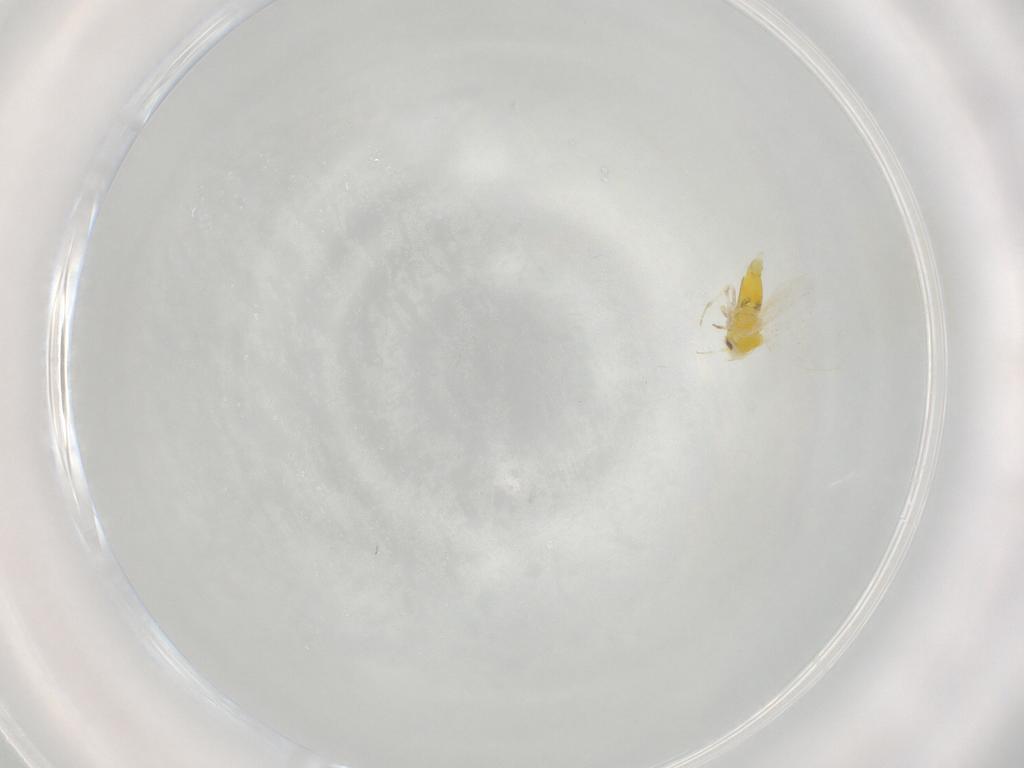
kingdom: Animalia
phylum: Arthropoda
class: Insecta
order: Hemiptera
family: Aleyrodidae
